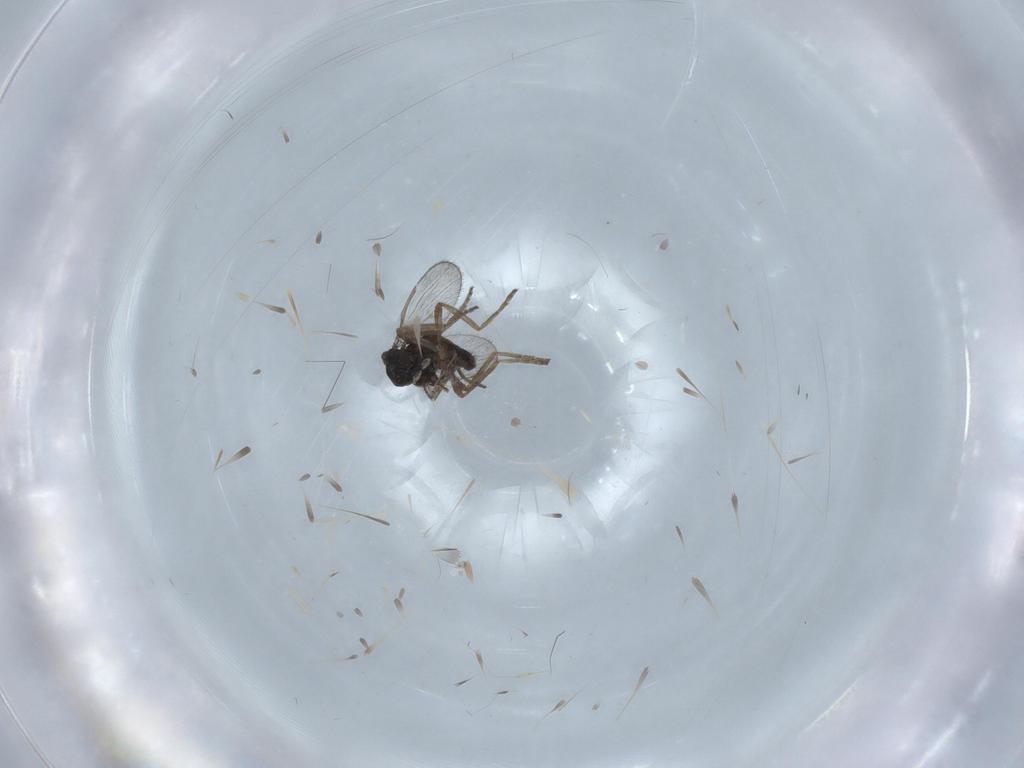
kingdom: Animalia
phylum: Arthropoda
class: Insecta
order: Diptera
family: Ceratopogonidae
